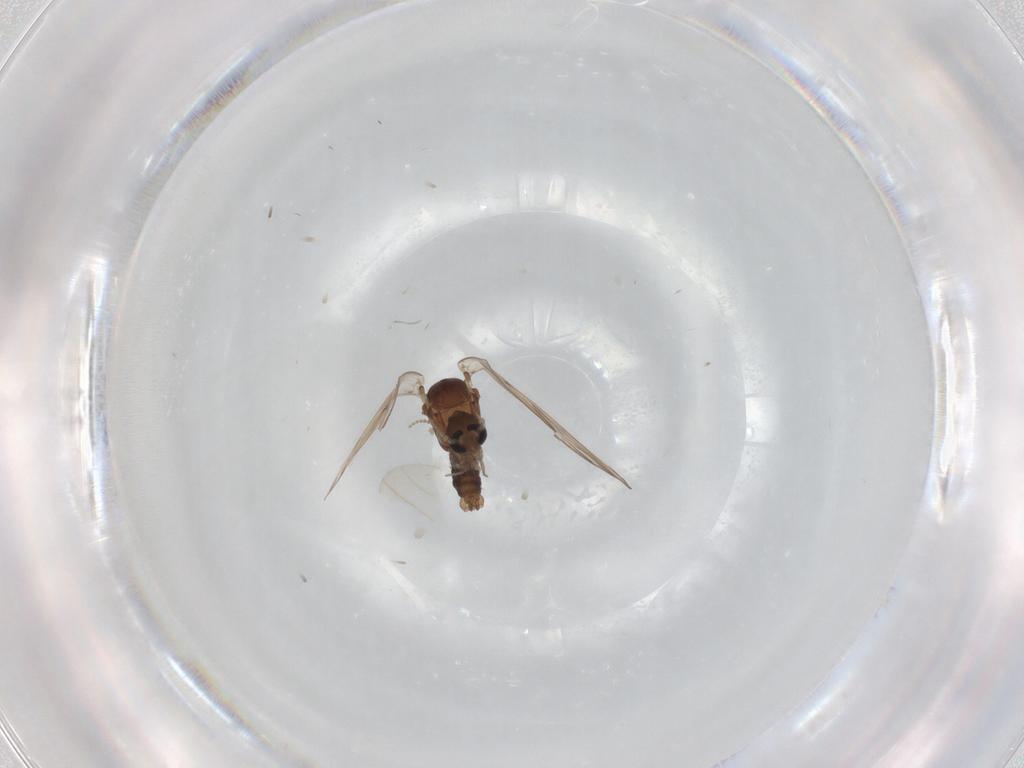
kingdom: Animalia
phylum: Arthropoda
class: Insecta
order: Diptera
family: Psychodidae
